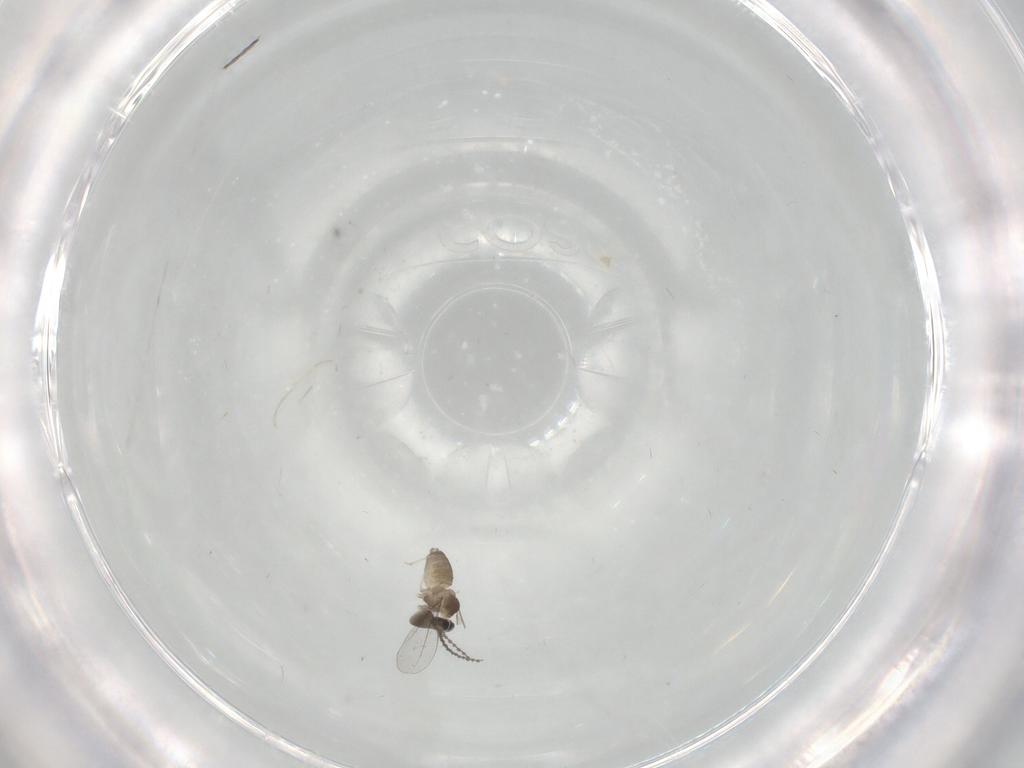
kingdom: Animalia
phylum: Arthropoda
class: Insecta
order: Diptera
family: Cecidomyiidae
